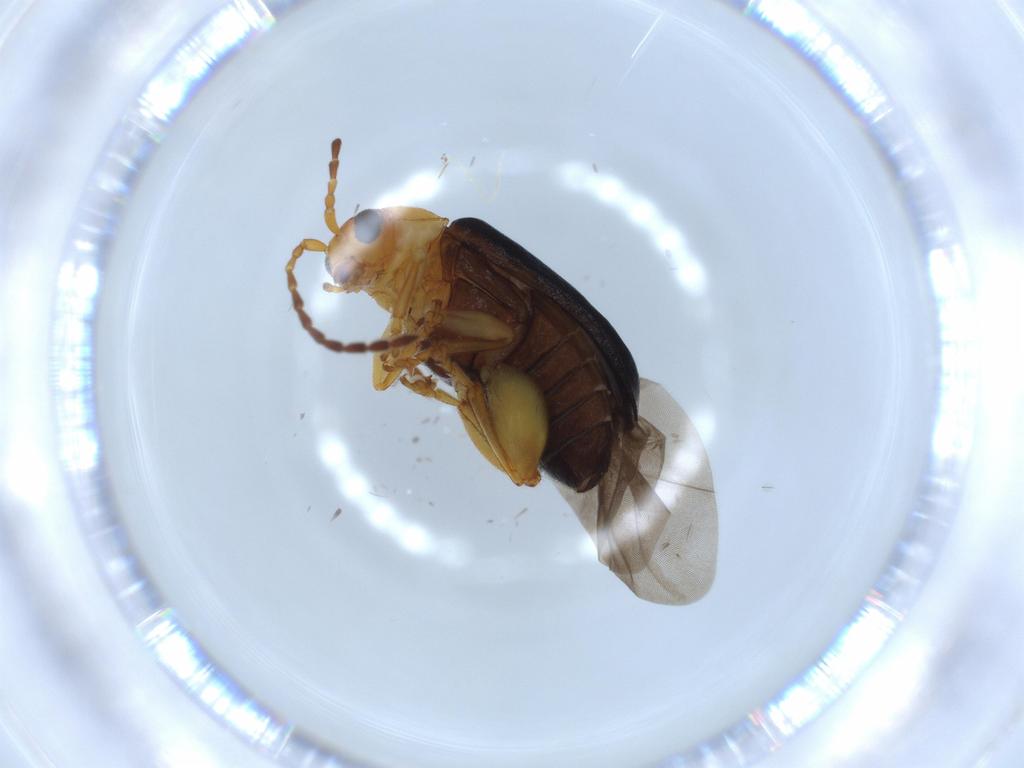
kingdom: Animalia
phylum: Arthropoda
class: Insecta
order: Coleoptera
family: Chrysomelidae
